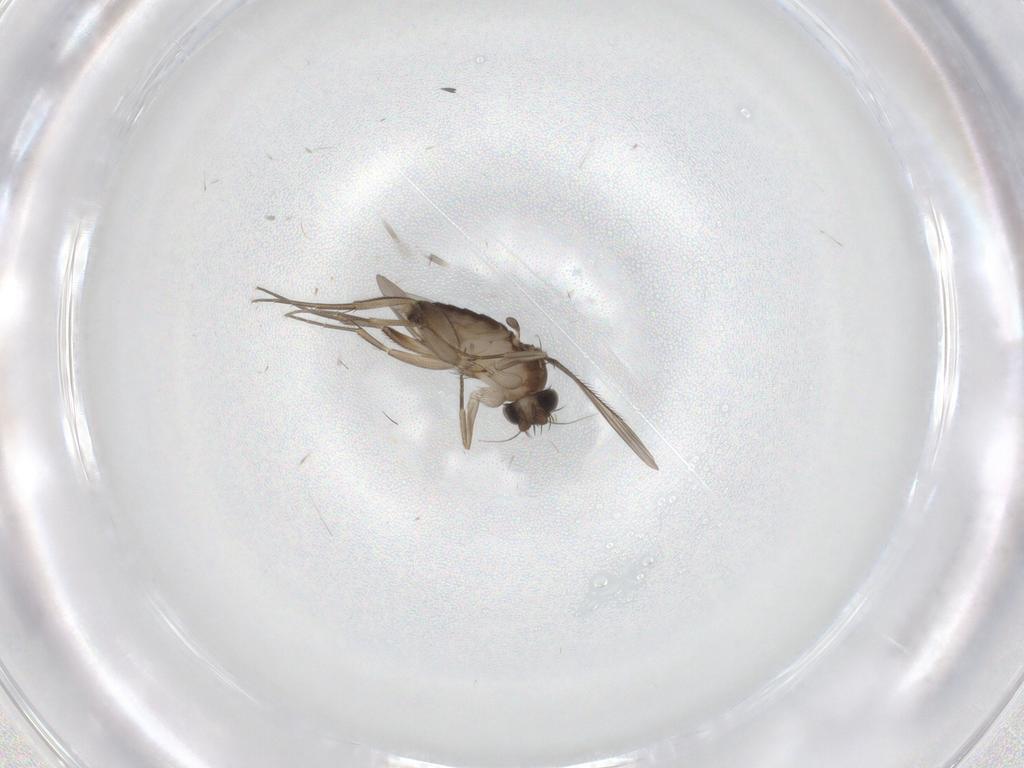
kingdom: Animalia
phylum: Arthropoda
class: Insecta
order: Diptera
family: Phoridae
